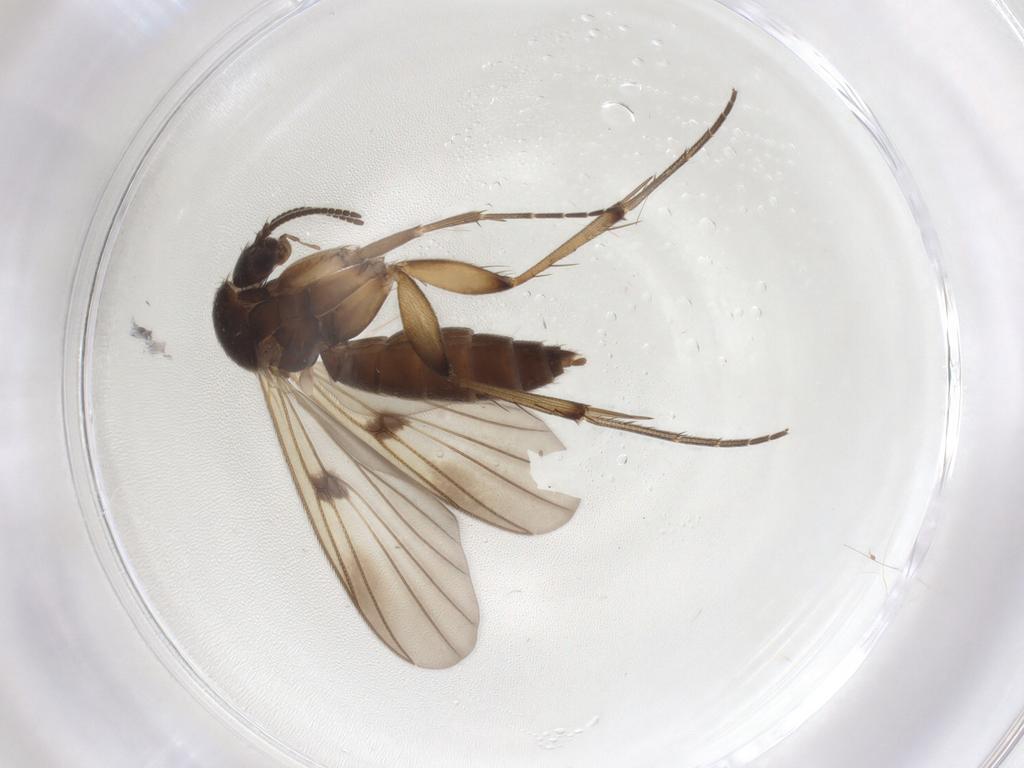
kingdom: Animalia
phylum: Arthropoda
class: Insecta
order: Diptera
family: Mycetophilidae
